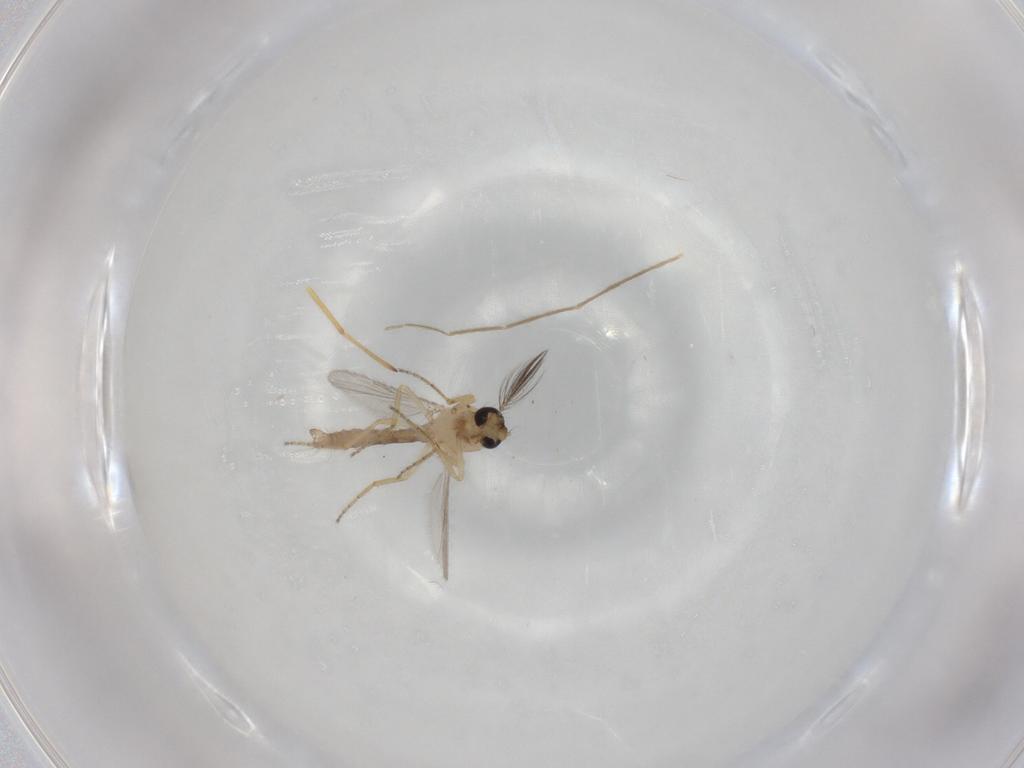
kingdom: Animalia
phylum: Arthropoda
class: Insecta
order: Diptera
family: Ceratopogonidae
